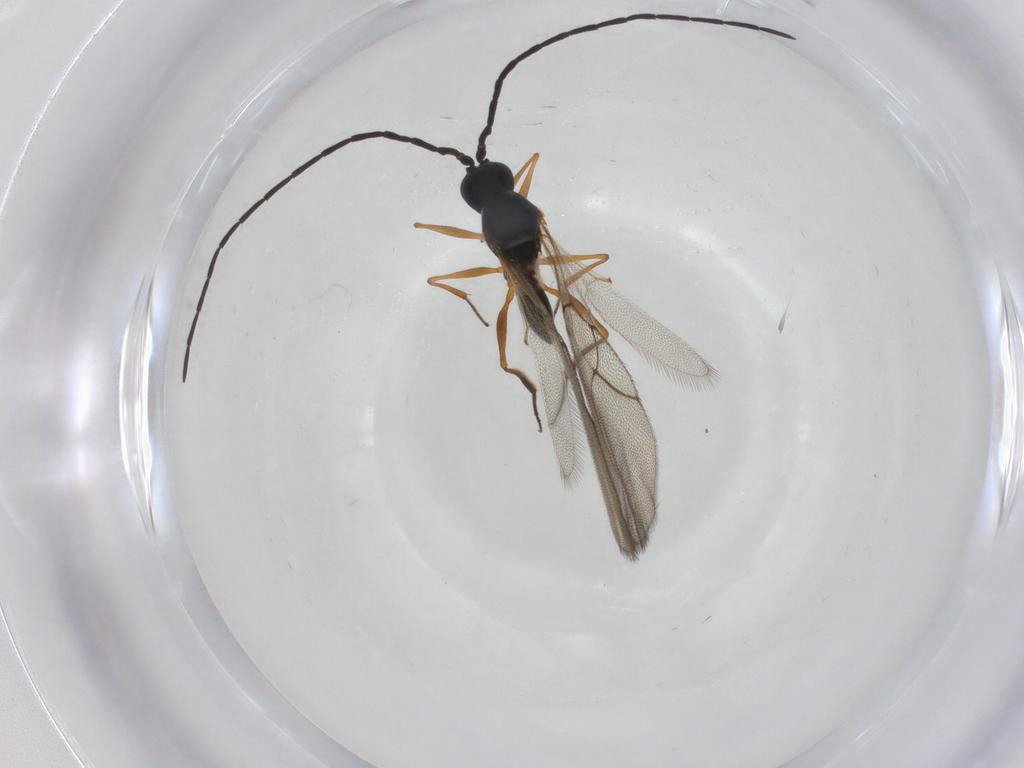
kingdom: Animalia
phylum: Arthropoda
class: Insecta
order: Hymenoptera
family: Figitidae
